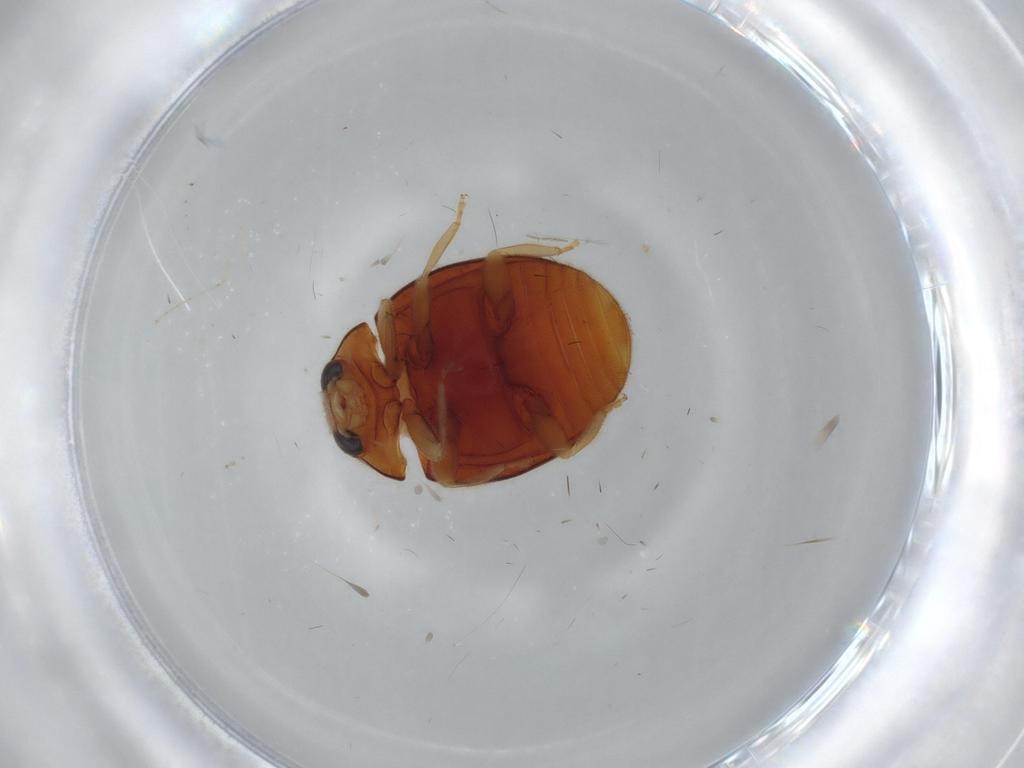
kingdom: Animalia
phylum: Arthropoda
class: Insecta
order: Coleoptera
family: Coccinellidae
